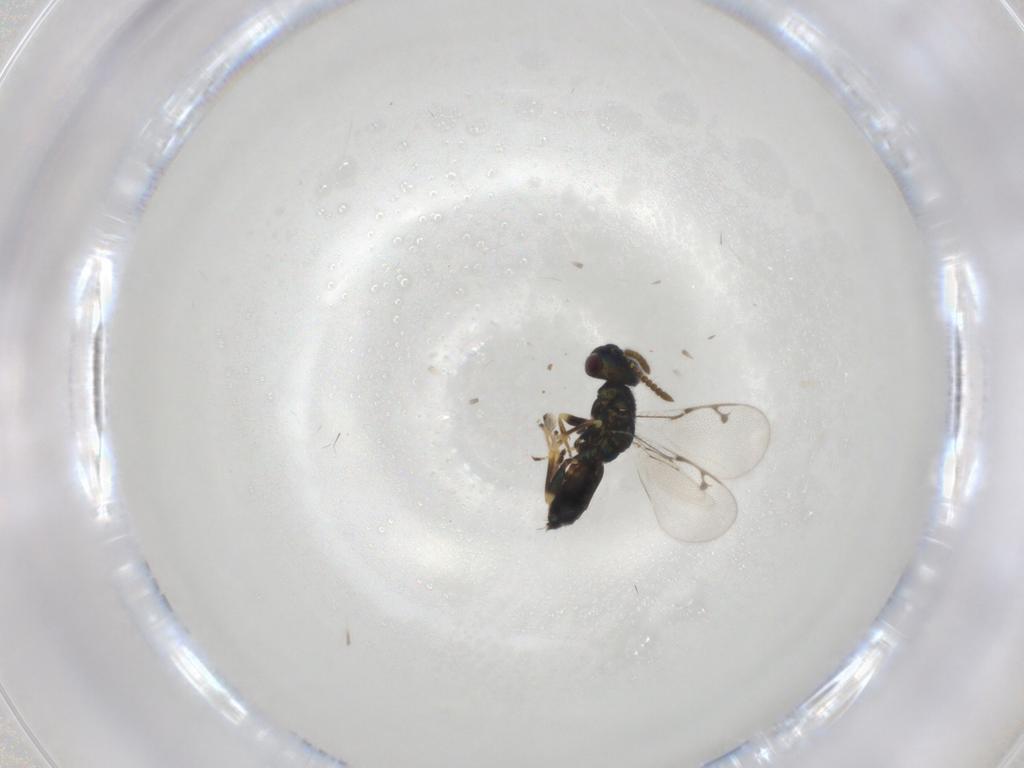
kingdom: Animalia
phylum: Arthropoda
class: Insecta
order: Hymenoptera
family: Pteromalidae
